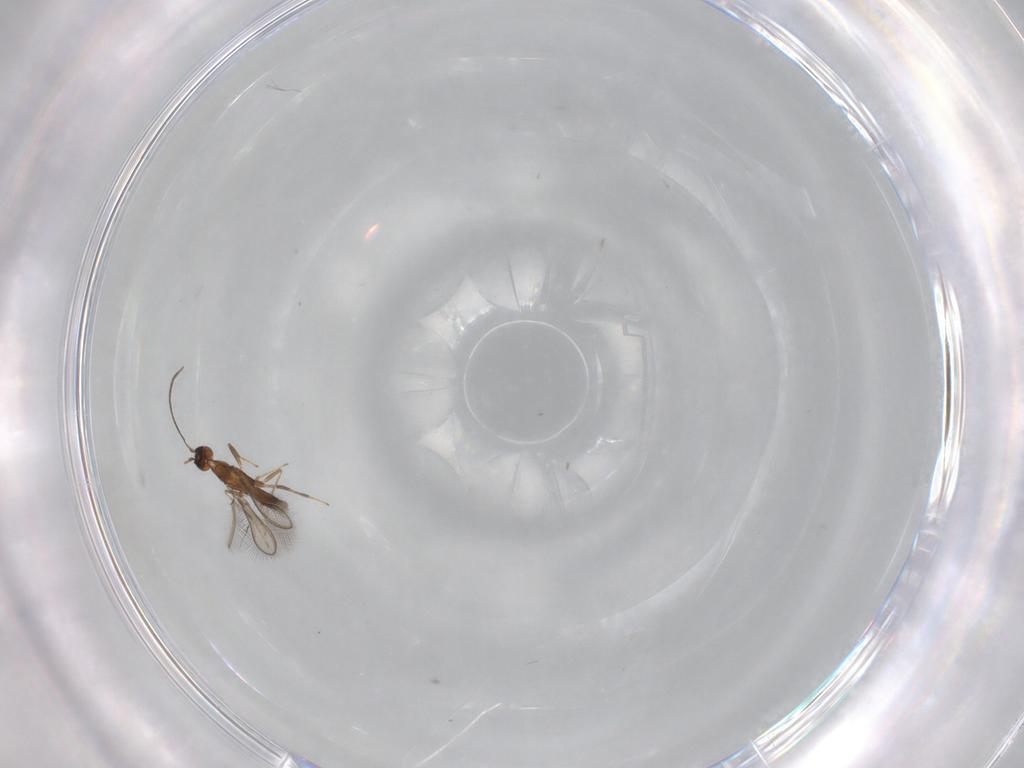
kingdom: Animalia
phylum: Arthropoda
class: Insecta
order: Hymenoptera
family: Mymaridae
